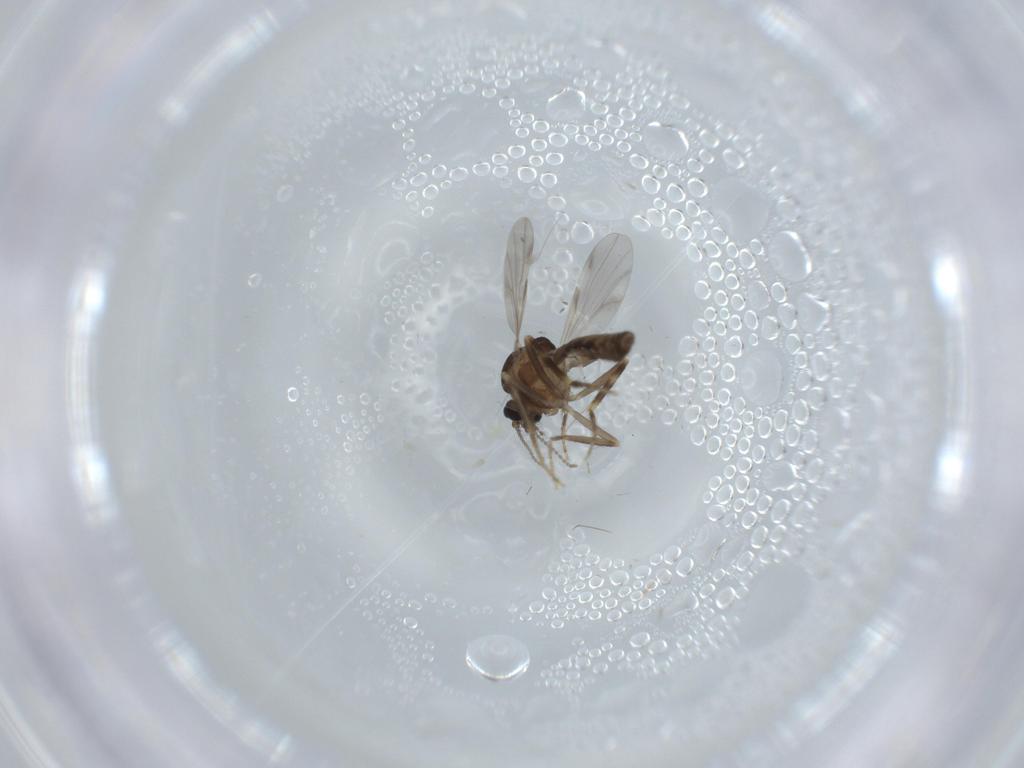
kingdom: Animalia
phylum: Arthropoda
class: Insecta
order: Diptera
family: Ceratopogonidae
